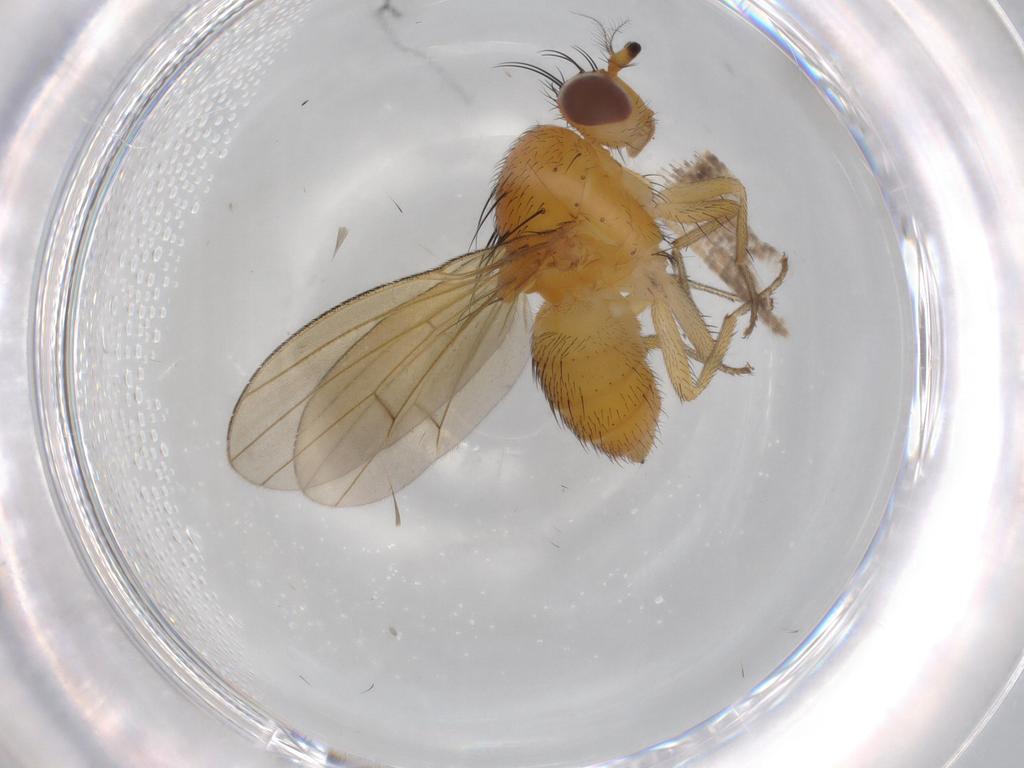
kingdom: Animalia
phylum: Arthropoda
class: Insecta
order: Diptera
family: Lauxaniidae
